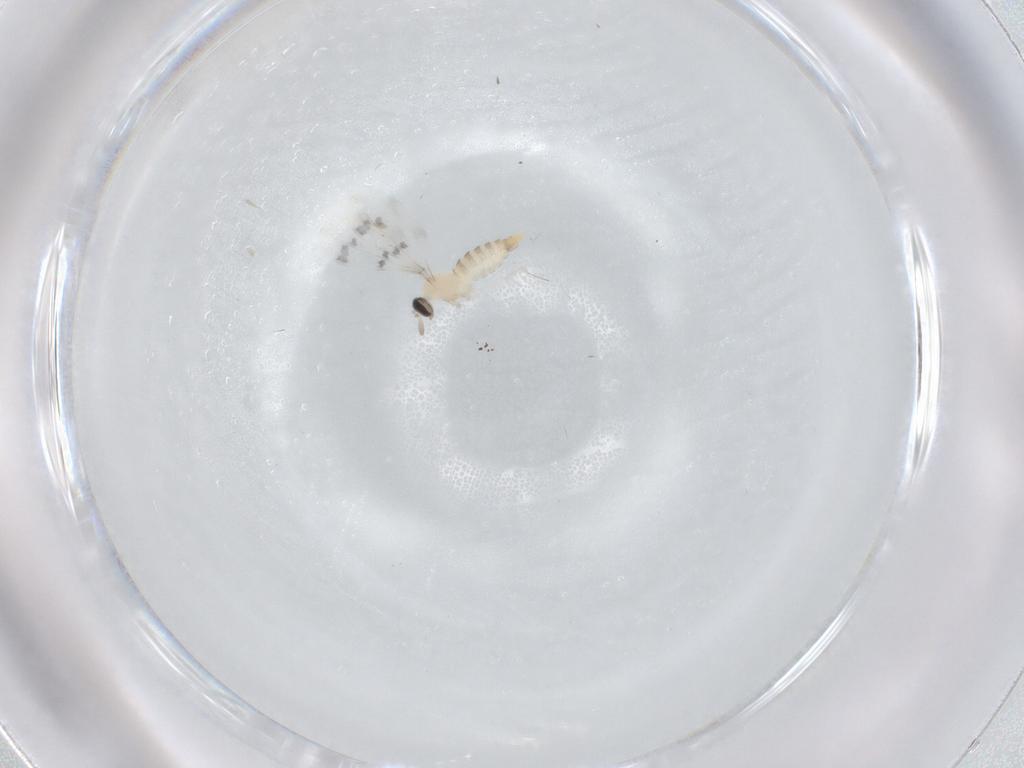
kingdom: Animalia
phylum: Arthropoda
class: Insecta
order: Diptera
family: Cecidomyiidae
